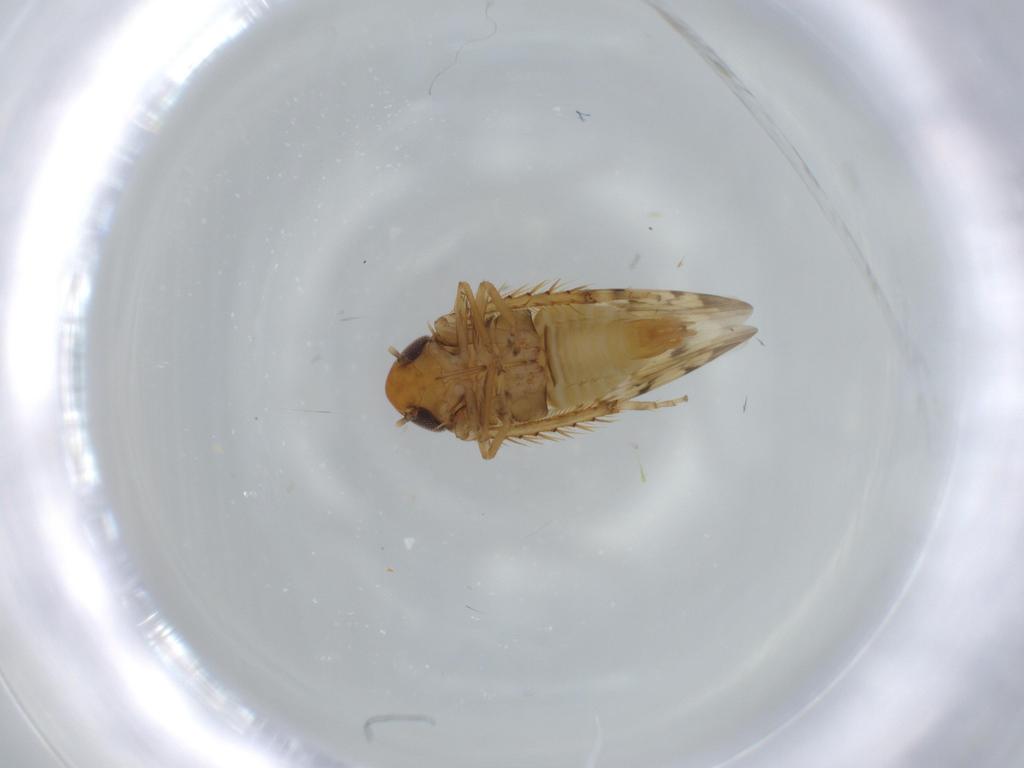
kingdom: Animalia
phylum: Arthropoda
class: Insecta
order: Hemiptera
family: Cicadellidae
